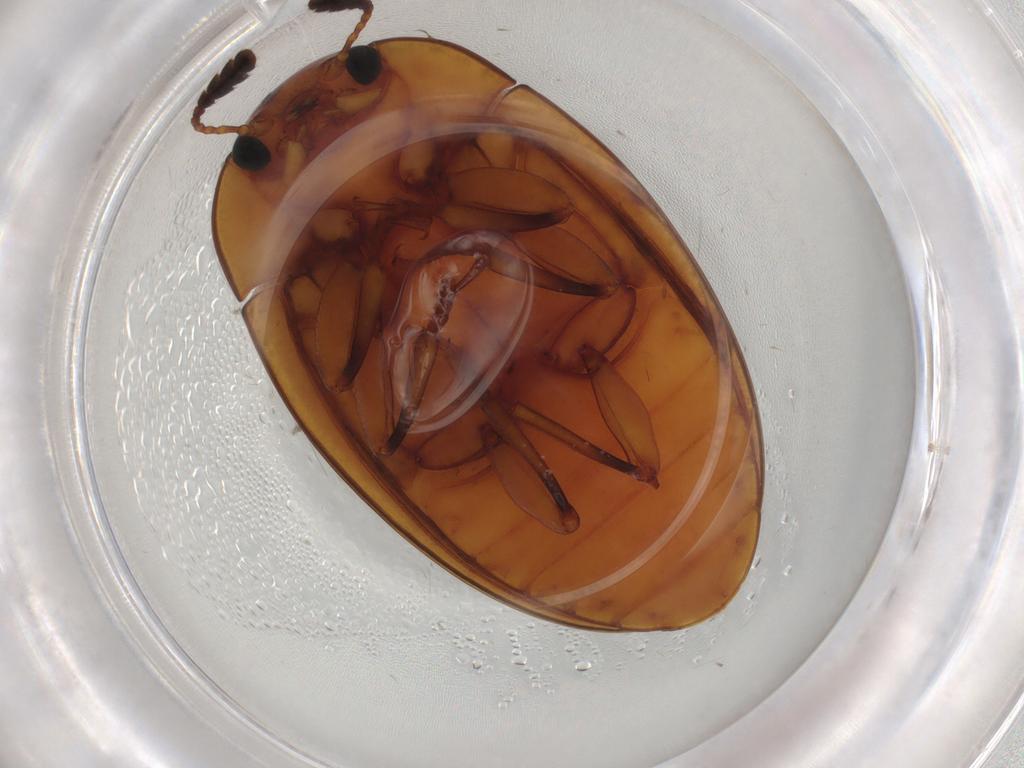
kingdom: Animalia
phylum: Arthropoda
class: Insecta
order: Coleoptera
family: Erotylidae
